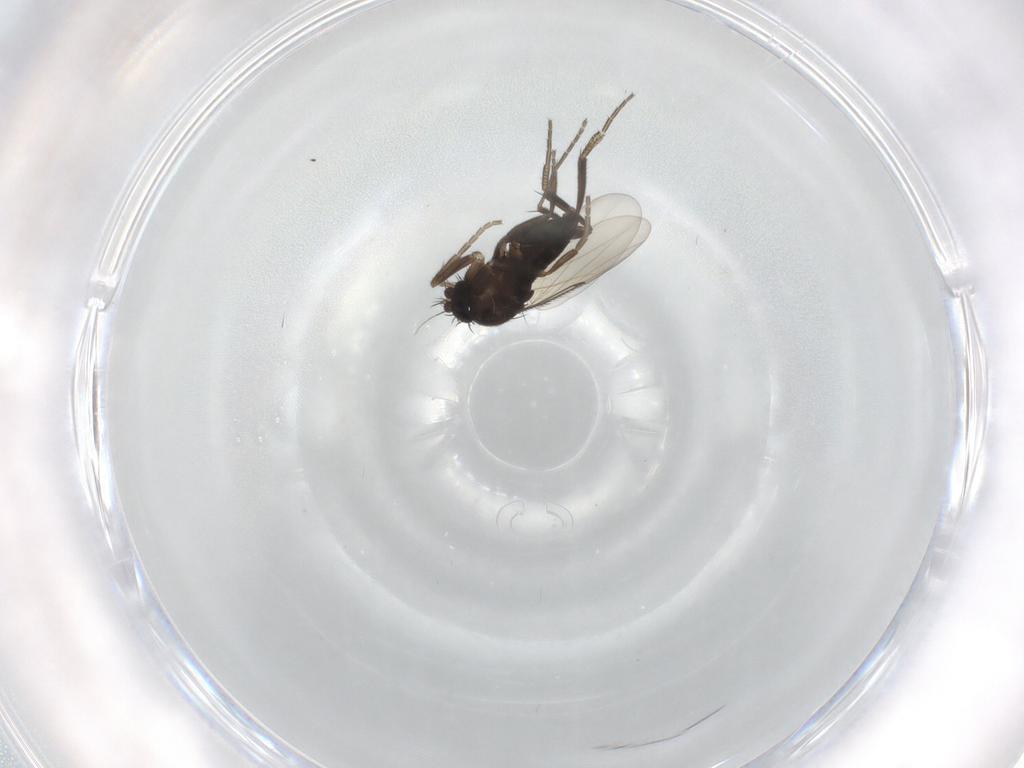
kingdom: Animalia
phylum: Arthropoda
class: Insecta
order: Diptera
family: Phoridae
